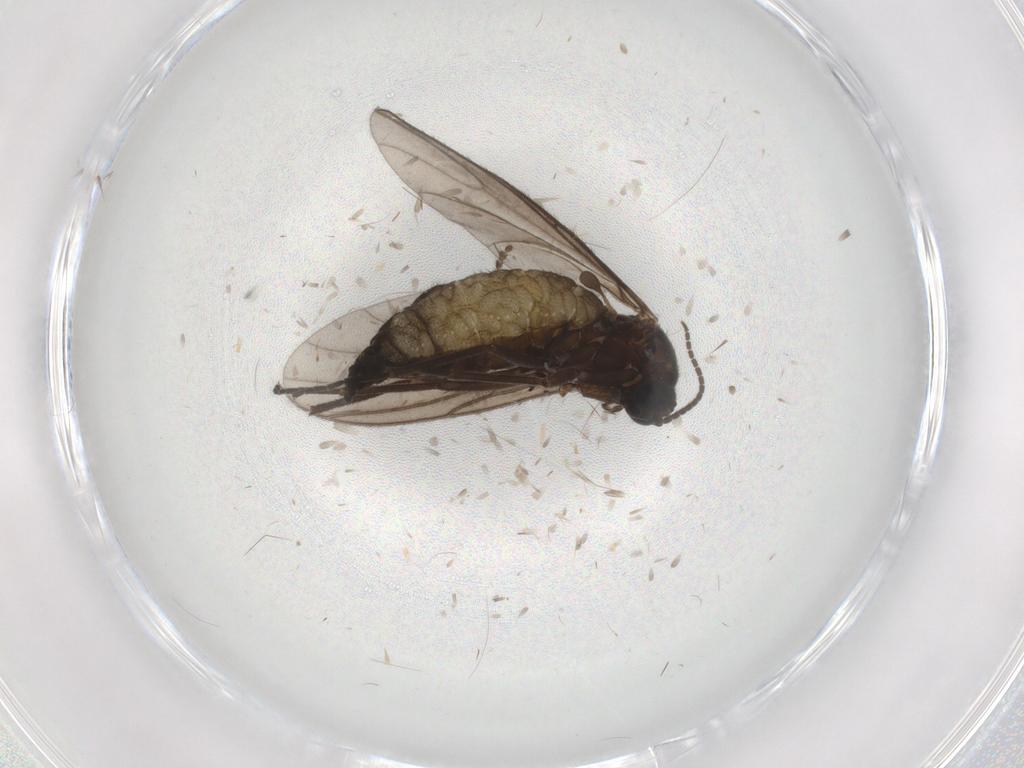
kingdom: Animalia
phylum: Arthropoda
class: Insecta
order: Diptera
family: Sciaridae
